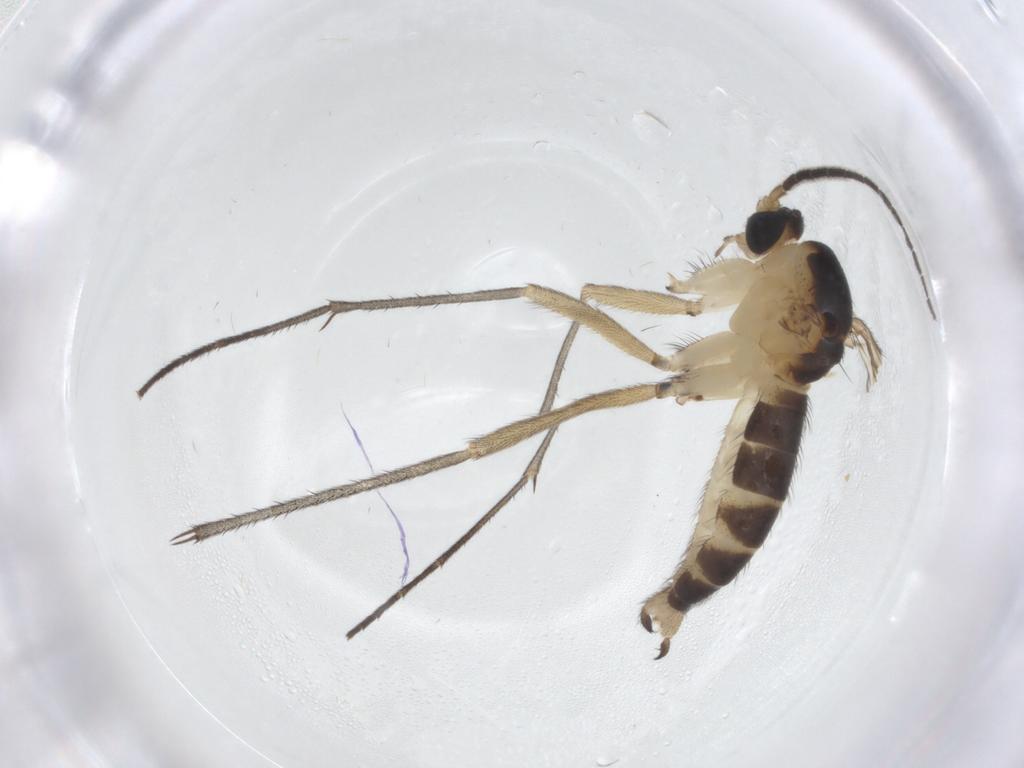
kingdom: Animalia
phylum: Arthropoda
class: Insecta
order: Diptera
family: Sciaridae
